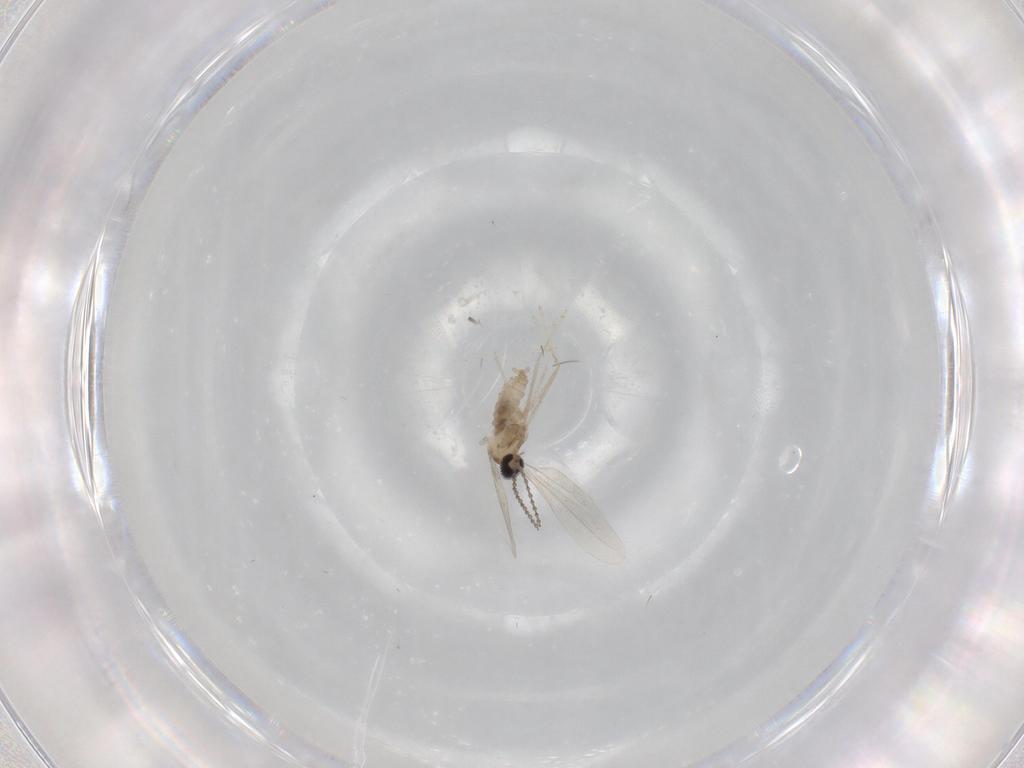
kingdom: Animalia
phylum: Arthropoda
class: Insecta
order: Diptera
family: Cecidomyiidae
